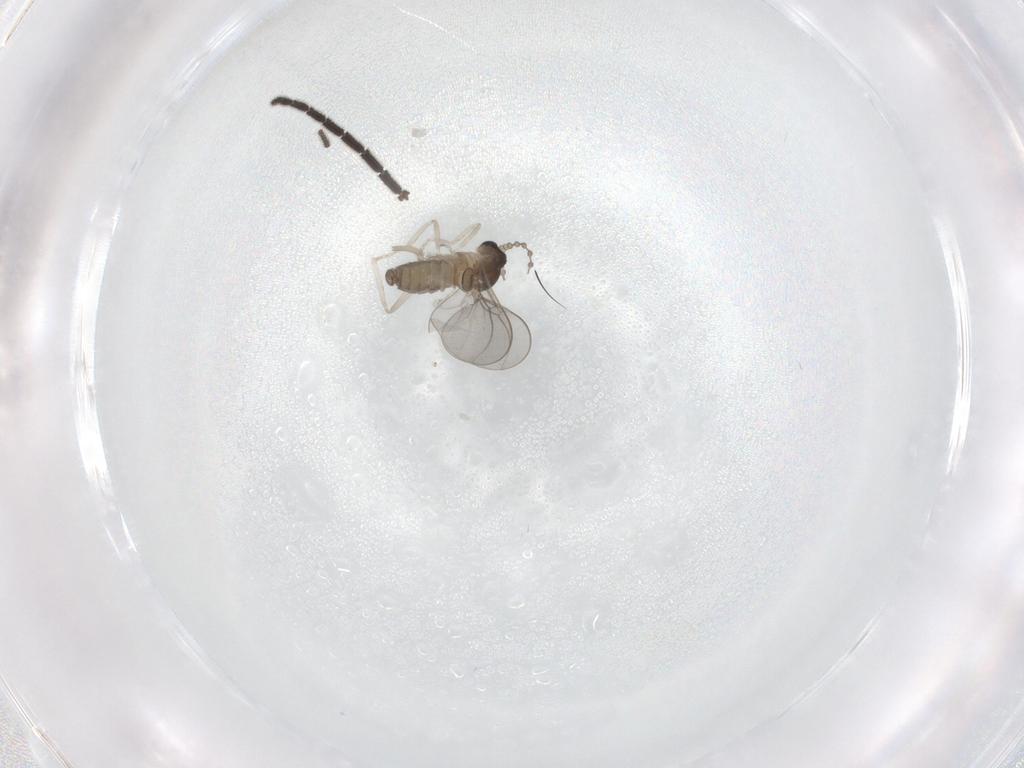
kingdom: Animalia
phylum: Arthropoda
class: Insecta
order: Diptera
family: Cecidomyiidae
